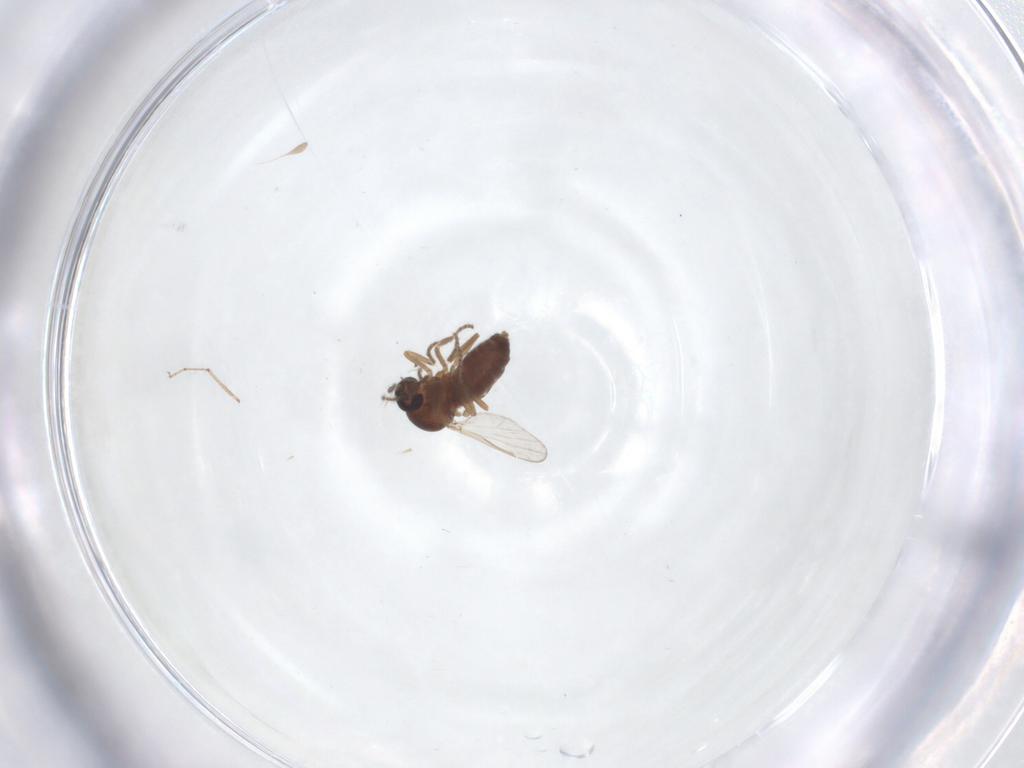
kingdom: Animalia
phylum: Arthropoda
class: Insecta
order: Diptera
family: Ceratopogonidae
